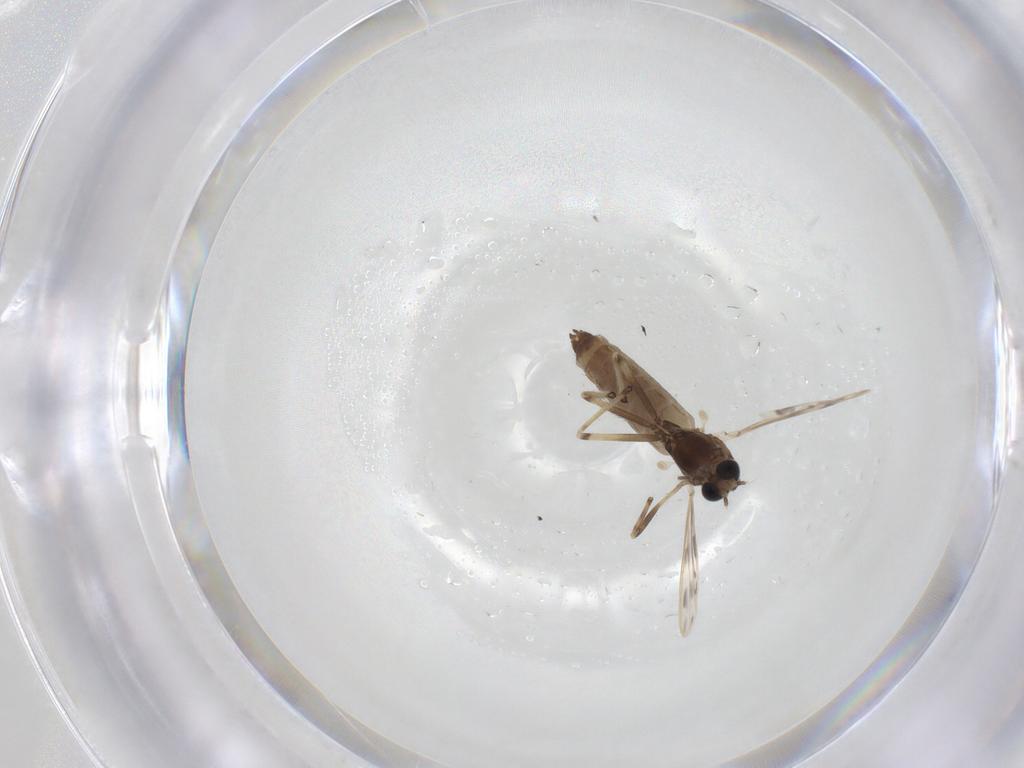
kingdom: Animalia
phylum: Arthropoda
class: Insecta
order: Diptera
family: Chironomidae
